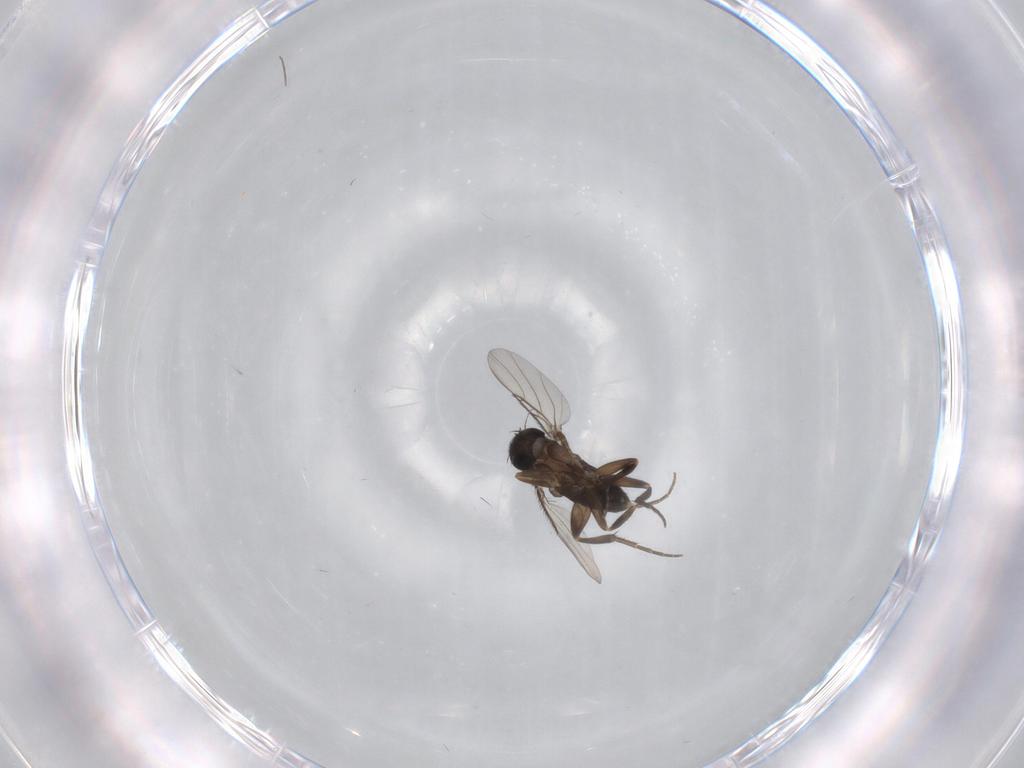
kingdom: Animalia
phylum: Arthropoda
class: Insecta
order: Diptera
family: Phoridae
